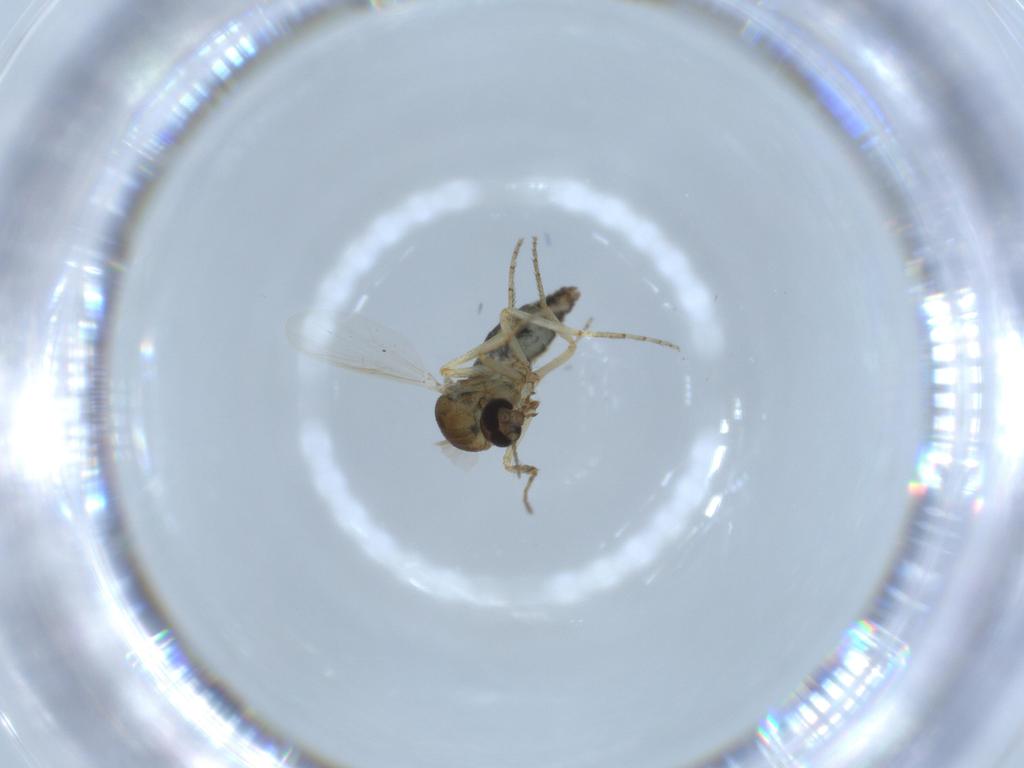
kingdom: Animalia
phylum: Arthropoda
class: Insecta
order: Diptera
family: Ceratopogonidae
